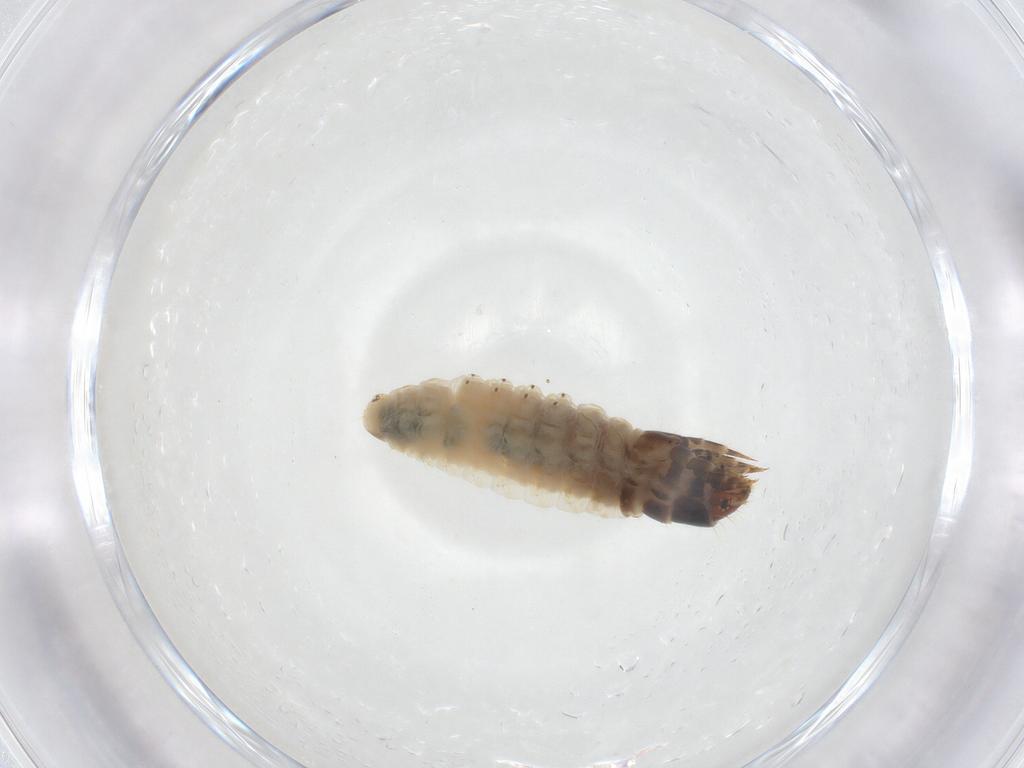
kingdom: Animalia
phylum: Arthropoda
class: Insecta
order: Lepidoptera
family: Psychidae
